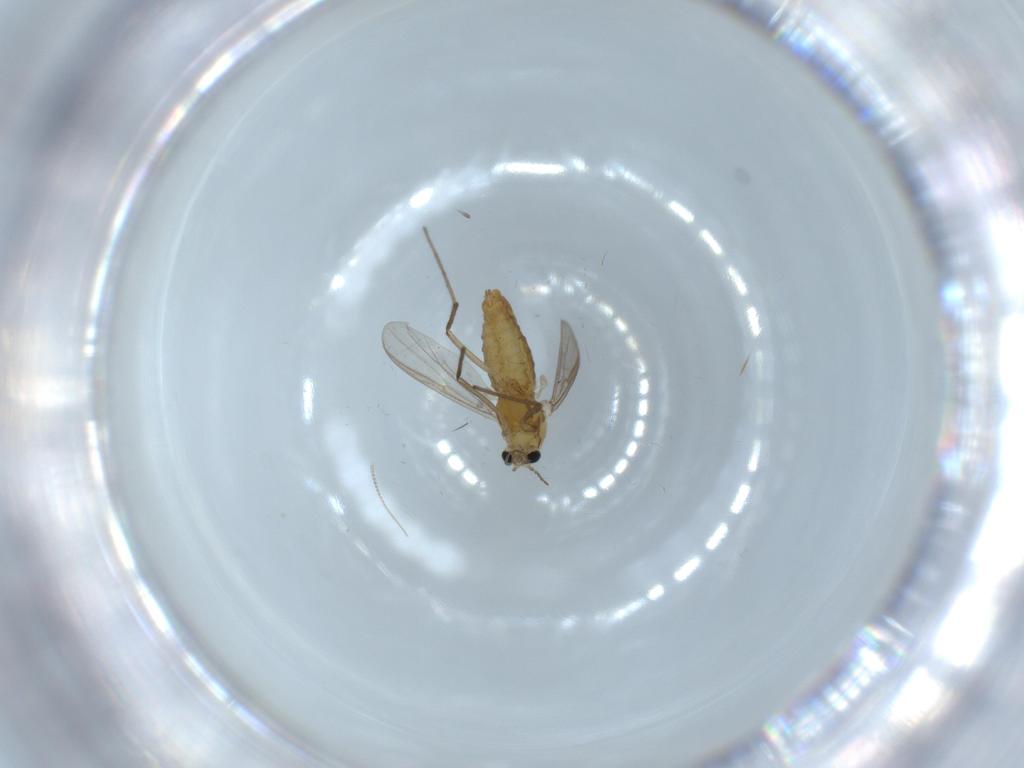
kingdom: Animalia
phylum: Arthropoda
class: Insecta
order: Diptera
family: Chironomidae
